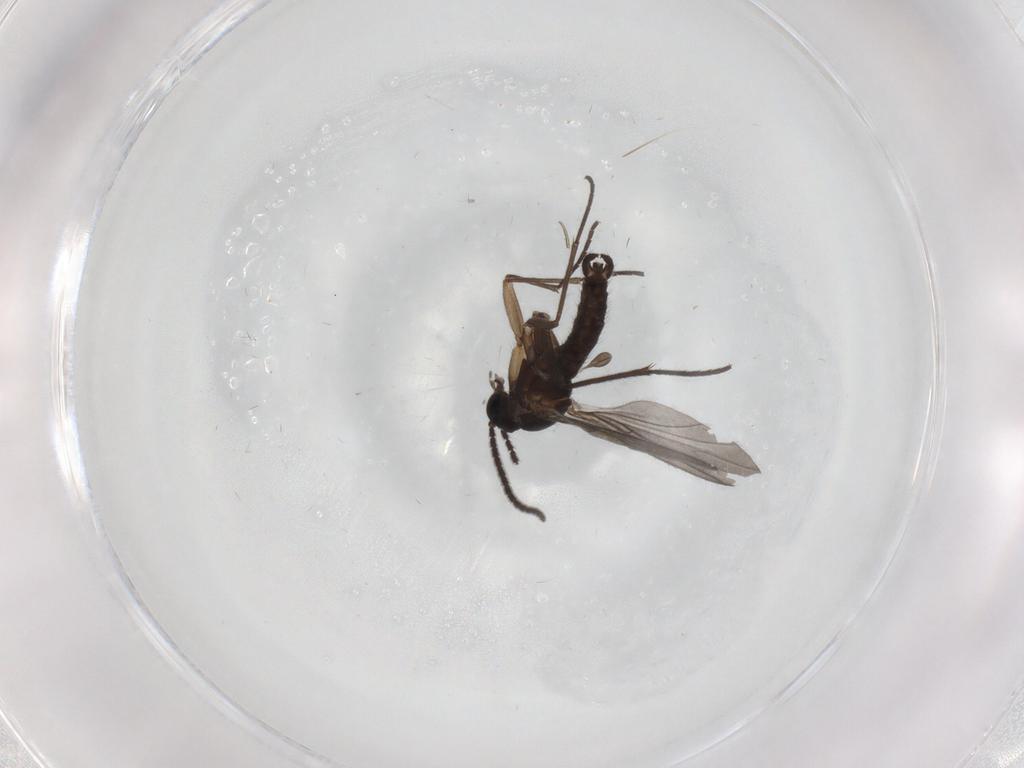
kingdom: Animalia
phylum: Arthropoda
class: Insecta
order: Diptera
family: Sciaridae
